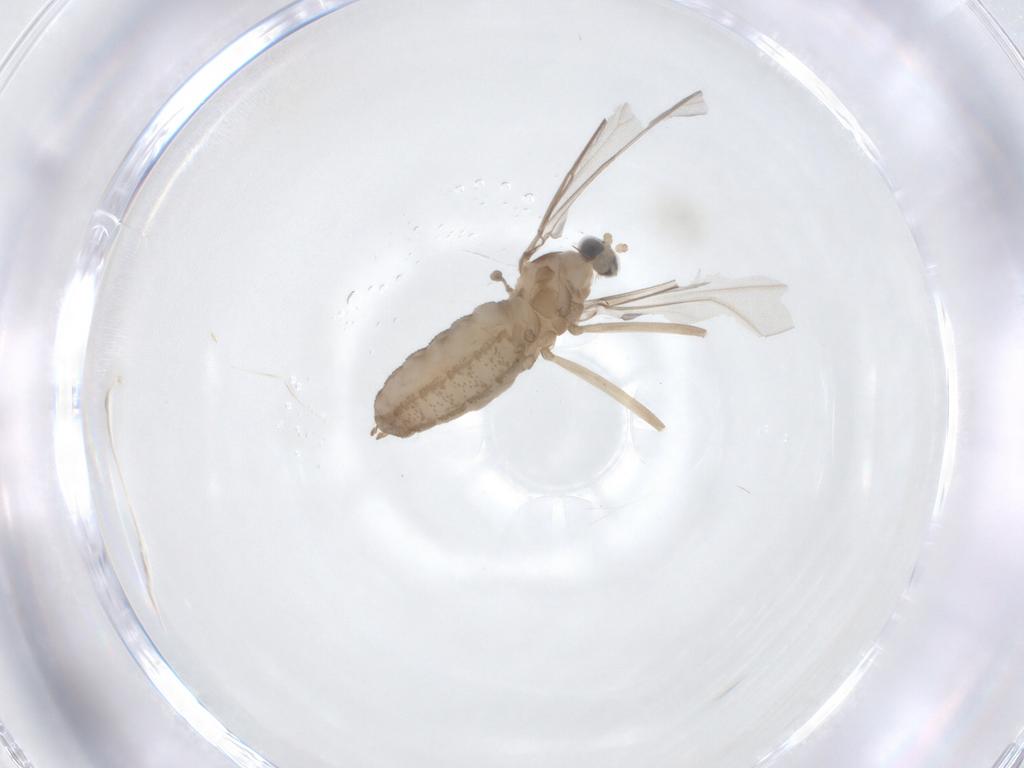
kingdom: Animalia
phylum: Arthropoda
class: Insecta
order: Diptera
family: Cecidomyiidae
